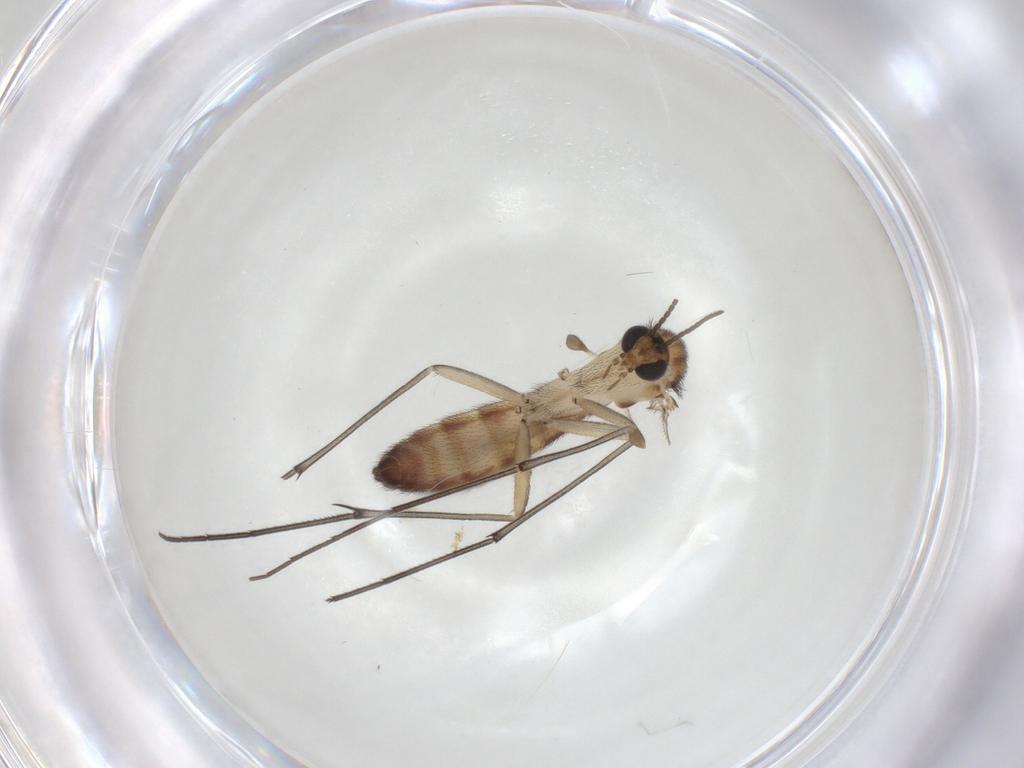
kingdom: Animalia
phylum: Arthropoda
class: Insecta
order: Diptera
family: Keroplatidae
